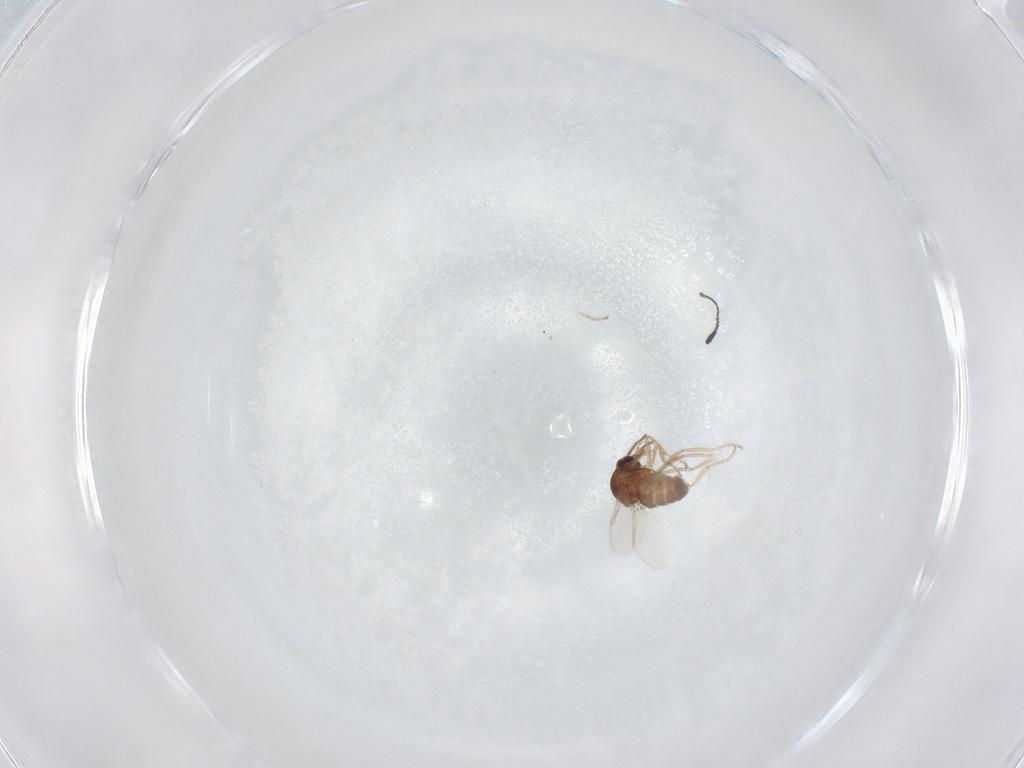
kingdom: Animalia
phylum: Arthropoda
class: Insecta
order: Diptera
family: Ceratopogonidae
